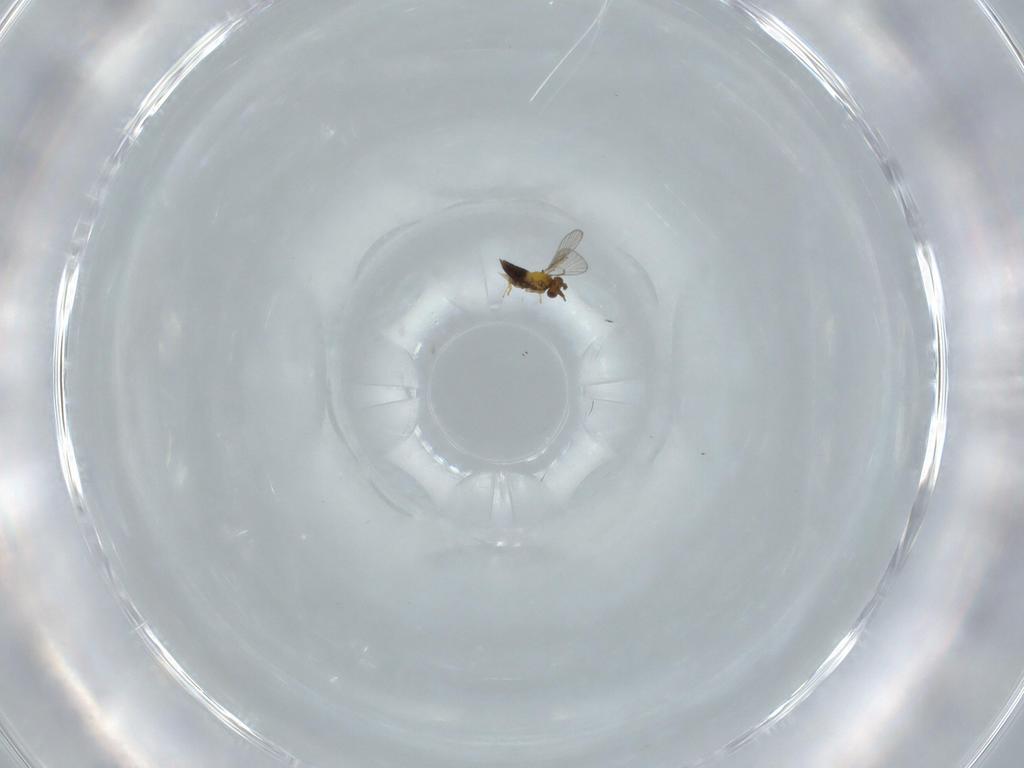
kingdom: Animalia
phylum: Arthropoda
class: Insecta
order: Hymenoptera
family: Trichogrammatidae
